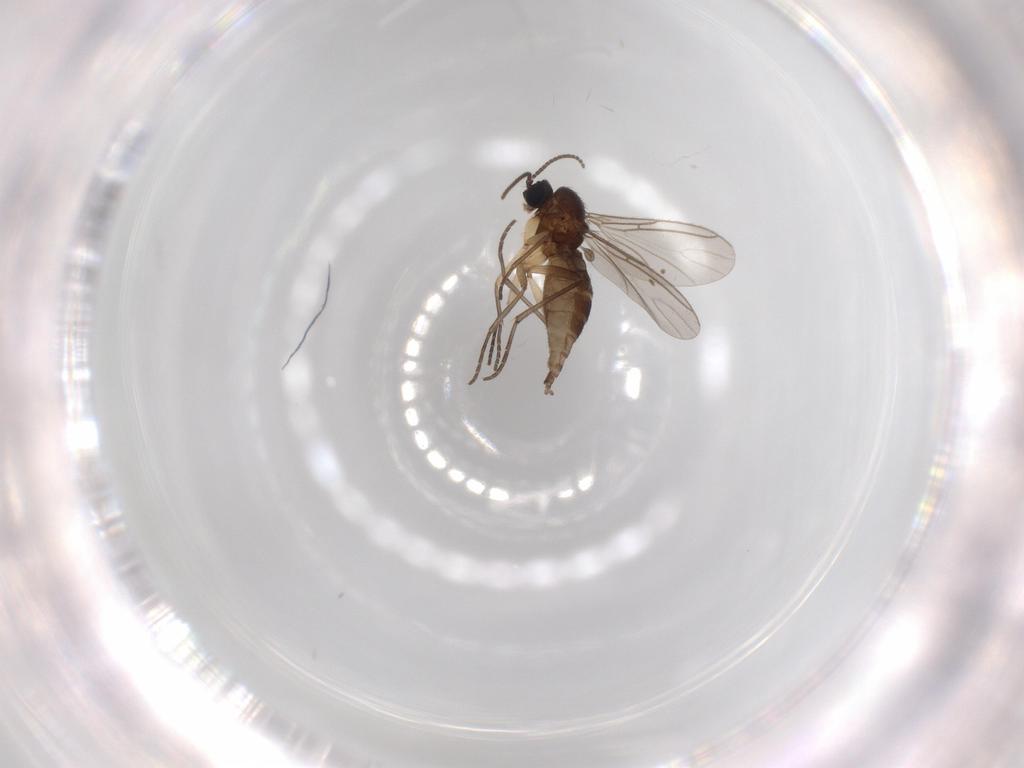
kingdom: Animalia
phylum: Arthropoda
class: Insecta
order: Diptera
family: Sciaridae
